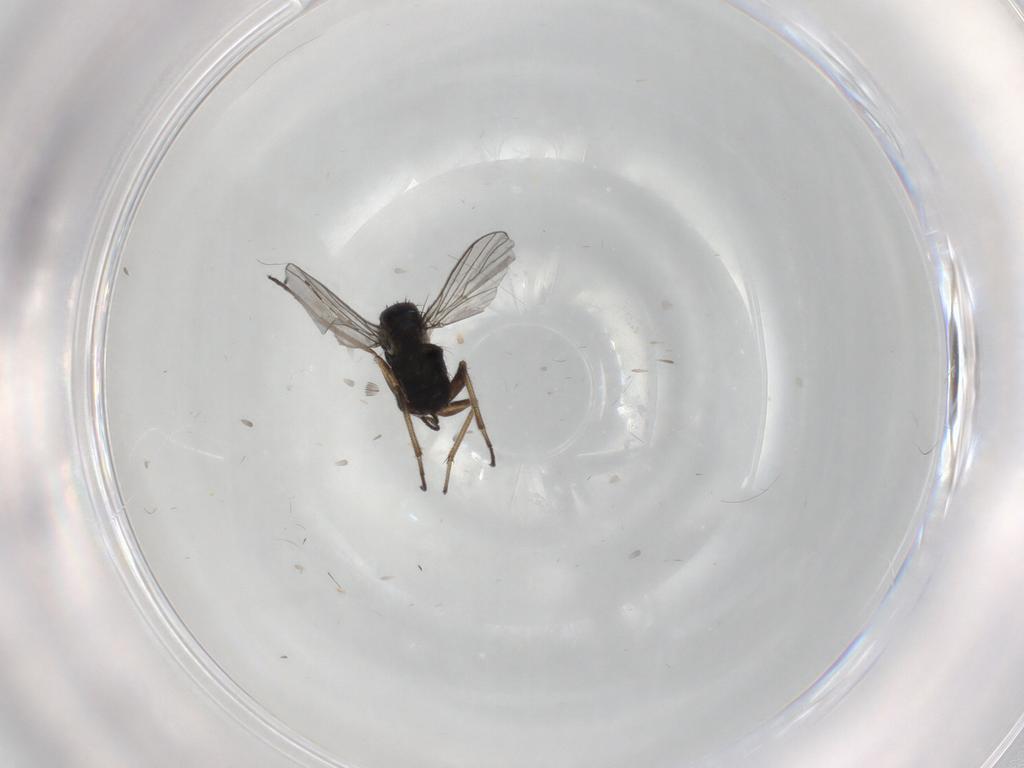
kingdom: Animalia
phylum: Arthropoda
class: Insecta
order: Diptera
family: Dolichopodidae
